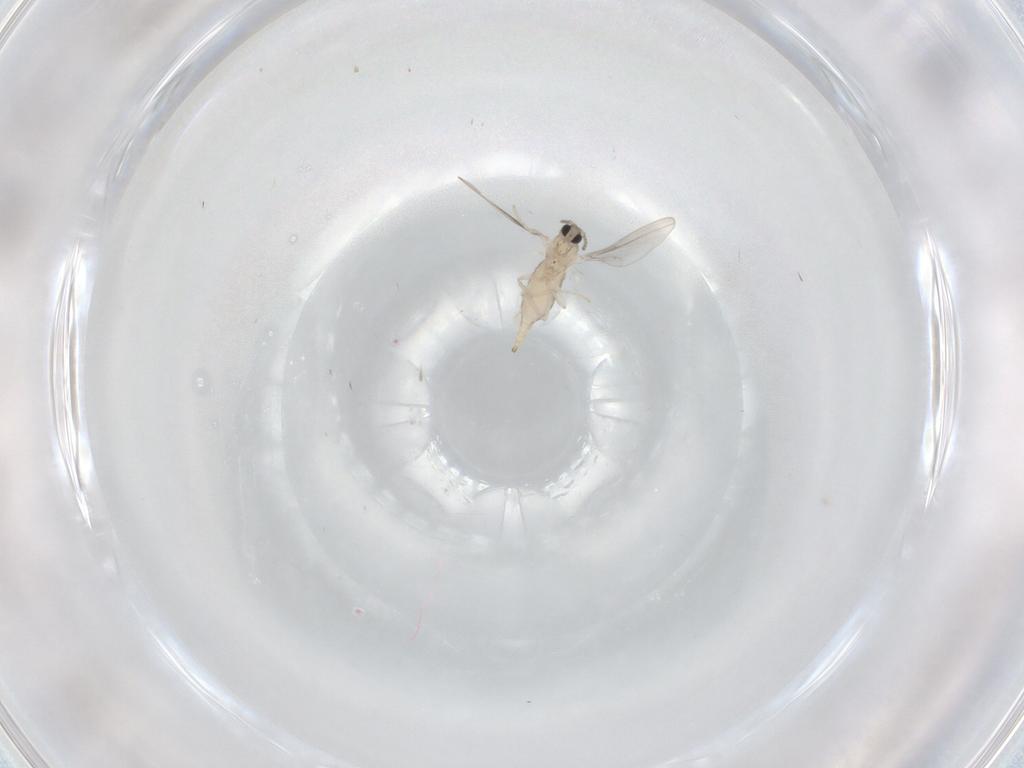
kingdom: Animalia
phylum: Arthropoda
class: Insecta
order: Diptera
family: Cecidomyiidae
